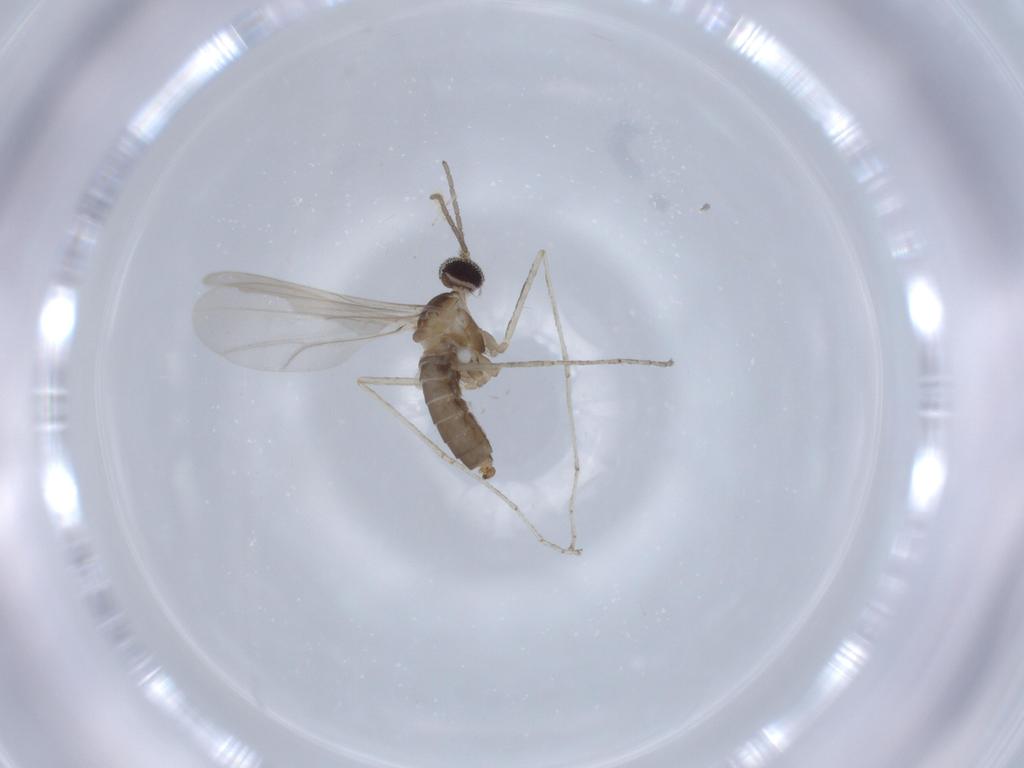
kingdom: Animalia
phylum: Arthropoda
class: Insecta
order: Diptera
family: Cecidomyiidae
